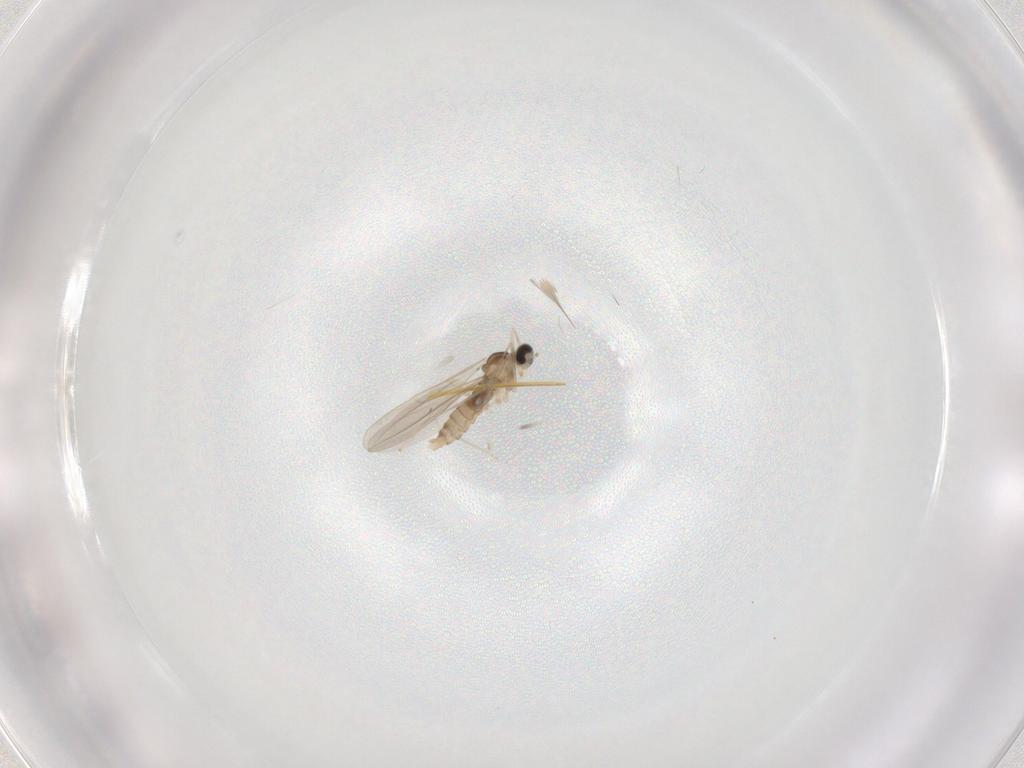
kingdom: Animalia
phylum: Arthropoda
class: Insecta
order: Diptera
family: Cecidomyiidae
